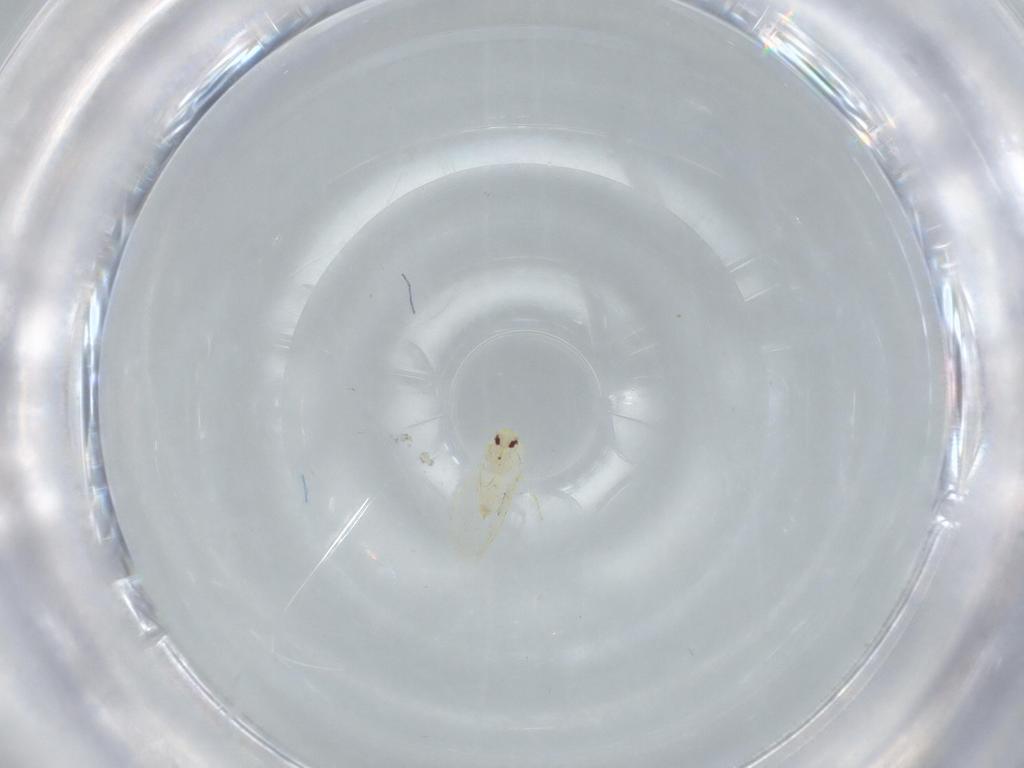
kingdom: Animalia
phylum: Arthropoda
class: Insecta
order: Hemiptera
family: Aleyrodidae
